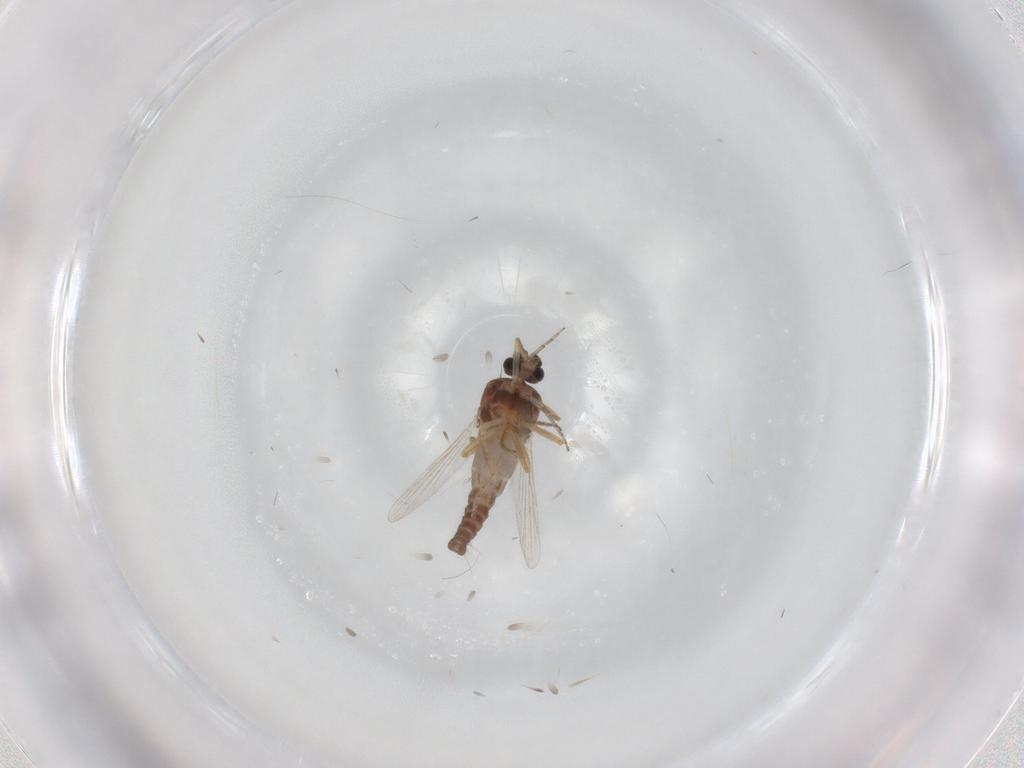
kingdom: Animalia
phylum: Arthropoda
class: Insecta
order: Diptera
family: Ceratopogonidae
